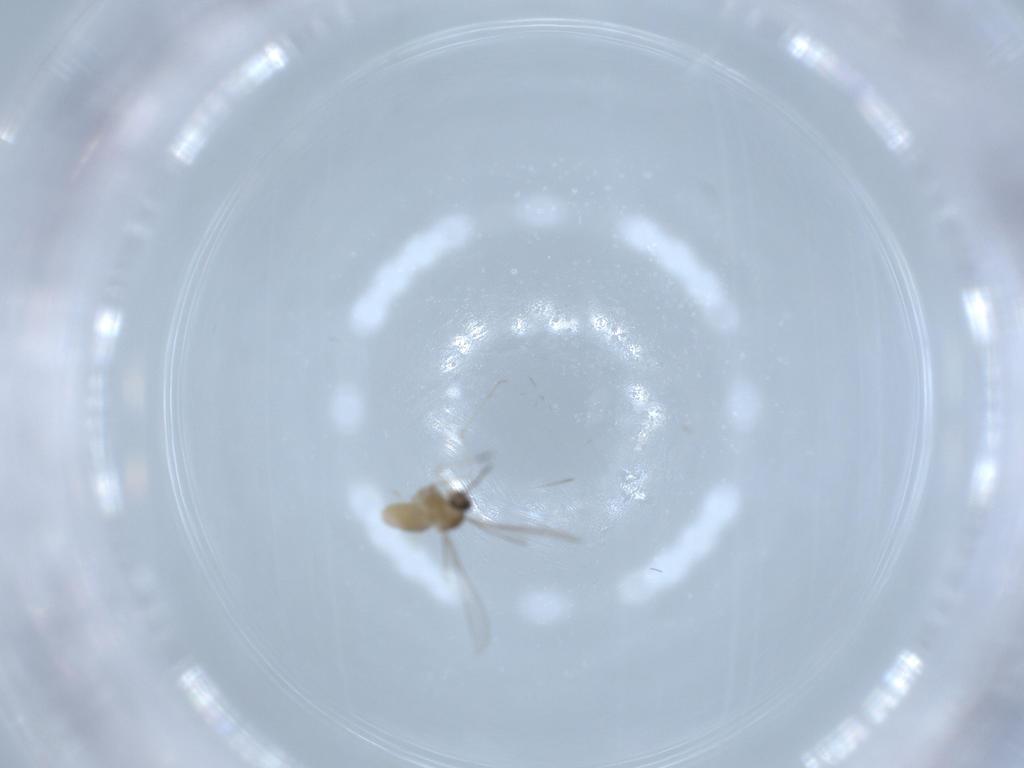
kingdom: Animalia
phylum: Arthropoda
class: Insecta
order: Diptera
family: Cecidomyiidae
